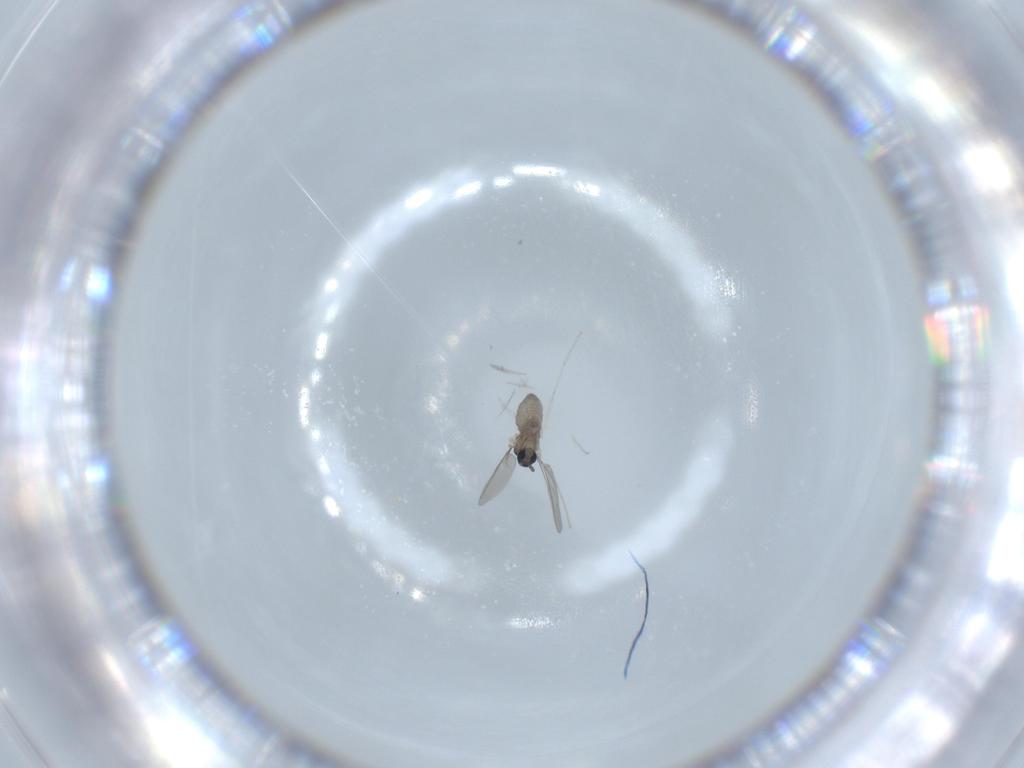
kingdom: Animalia
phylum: Arthropoda
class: Insecta
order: Diptera
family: Cecidomyiidae
